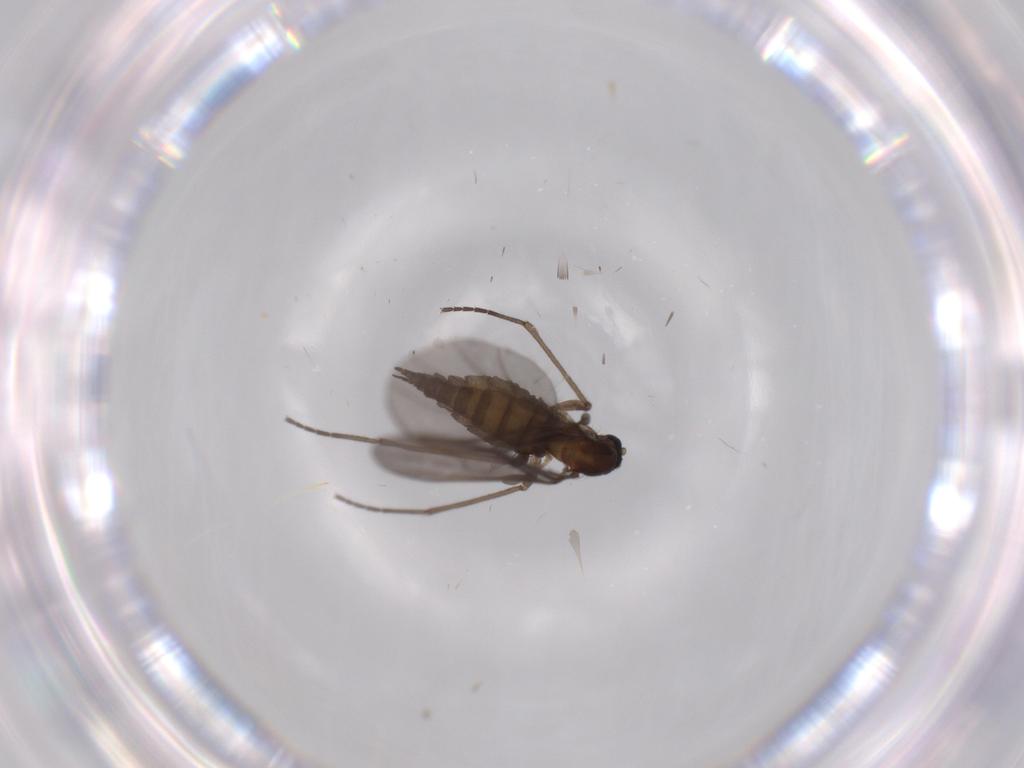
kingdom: Animalia
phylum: Arthropoda
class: Insecta
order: Diptera
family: Sciaridae
